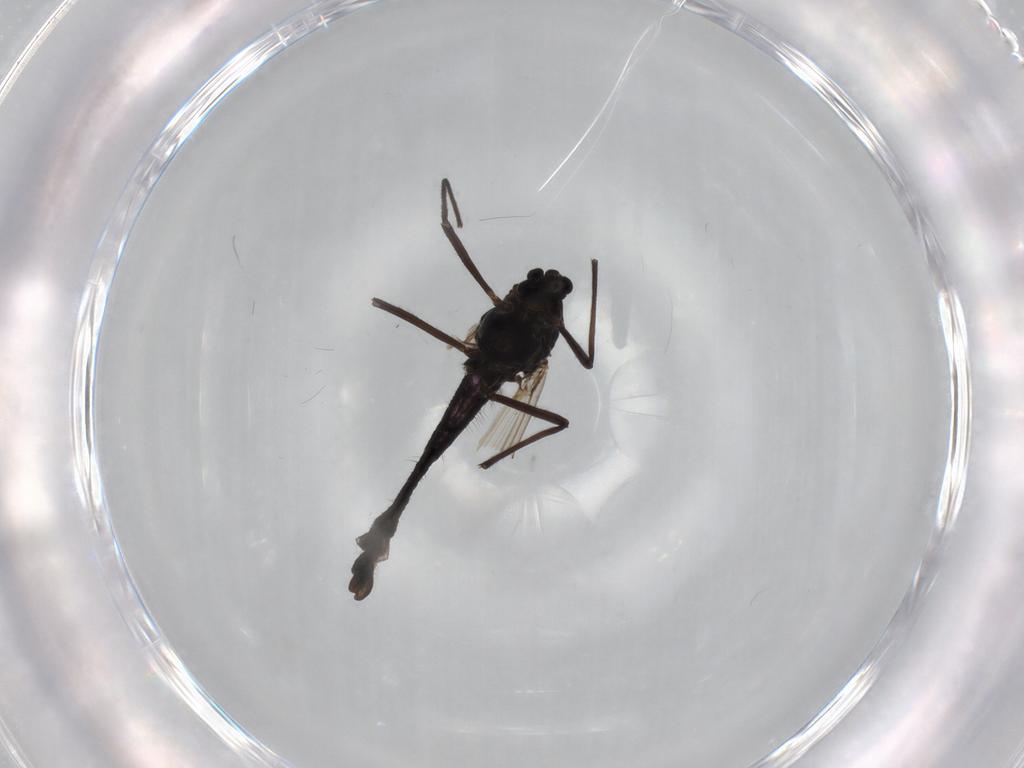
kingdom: Animalia
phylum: Arthropoda
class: Insecta
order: Diptera
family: Chironomidae
